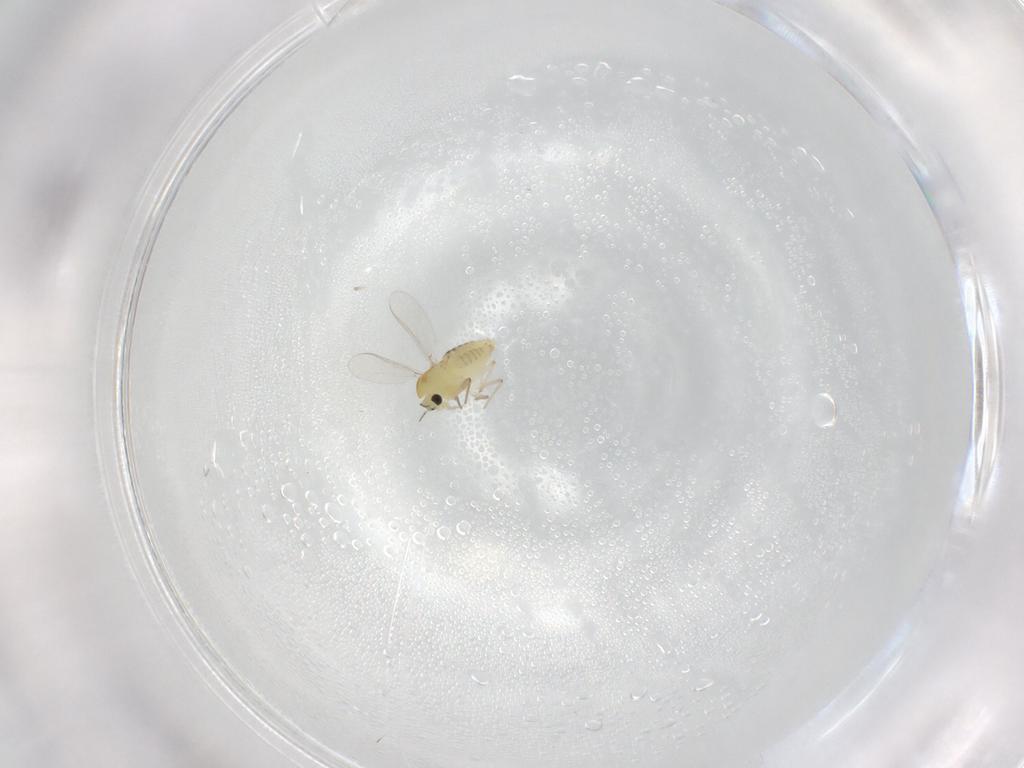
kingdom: Animalia
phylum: Arthropoda
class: Insecta
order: Diptera
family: Chironomidae
